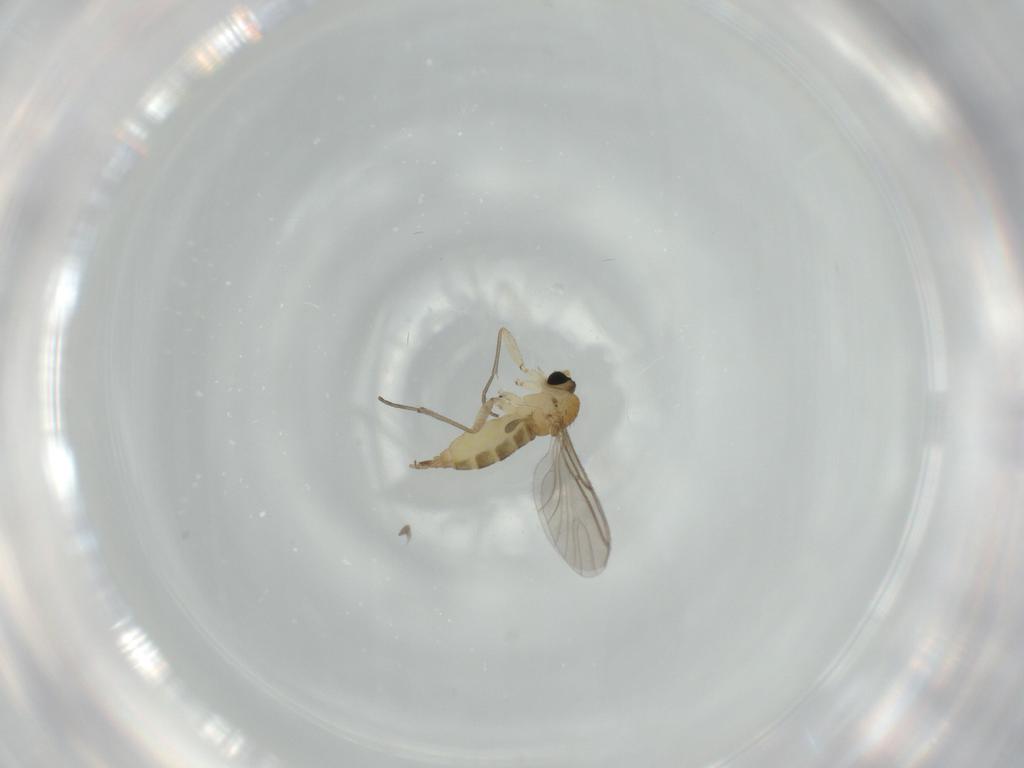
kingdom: Animalia
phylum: Arthropoda
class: Insecta
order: Diptera
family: Sciaridae
